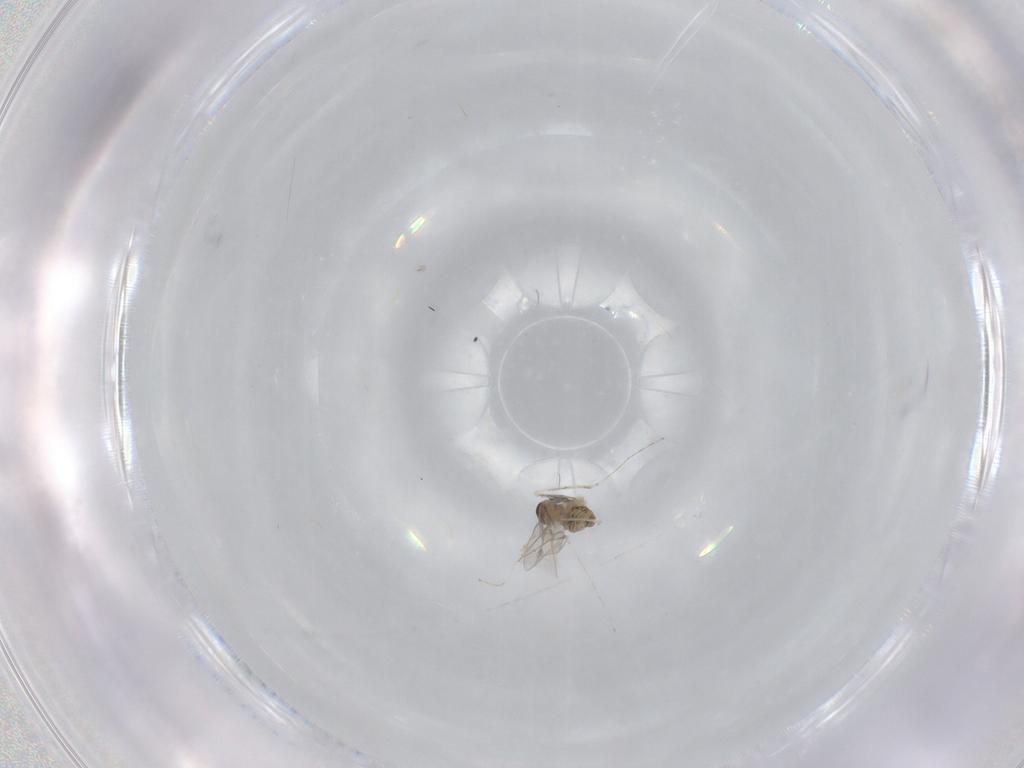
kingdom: Animalia
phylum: Arthropoda
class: Insecta
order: Diptera
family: Cecidomyiidae
